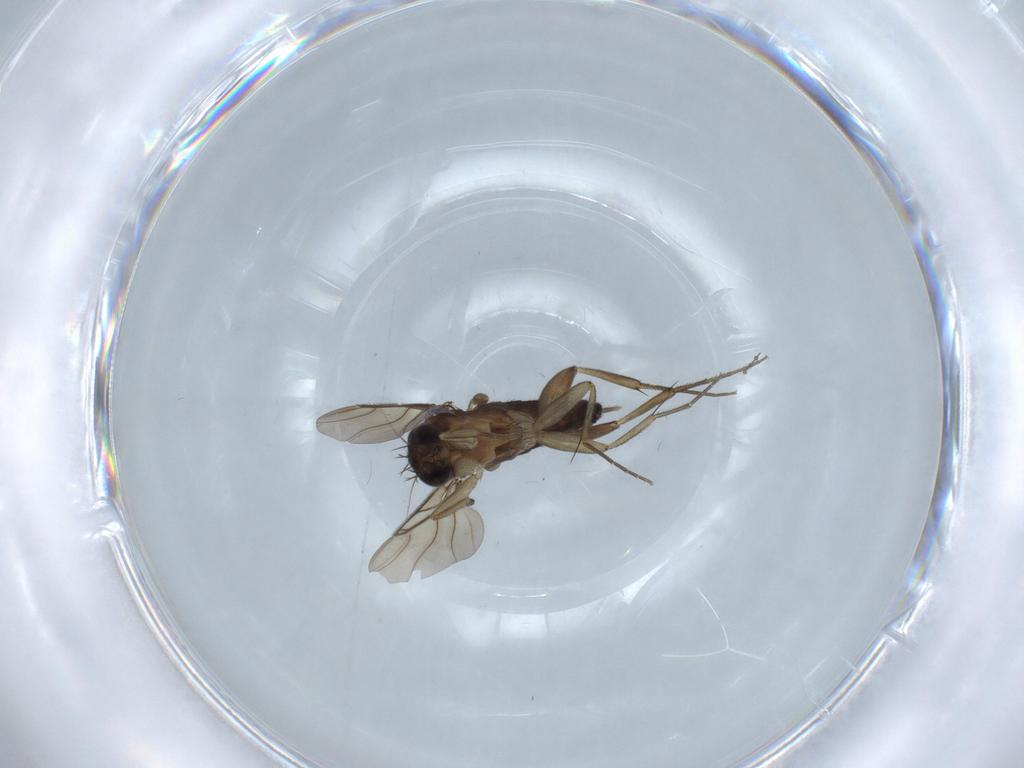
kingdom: Animalia
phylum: Arthropoda
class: Insecta
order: Diptera
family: Phoridae
